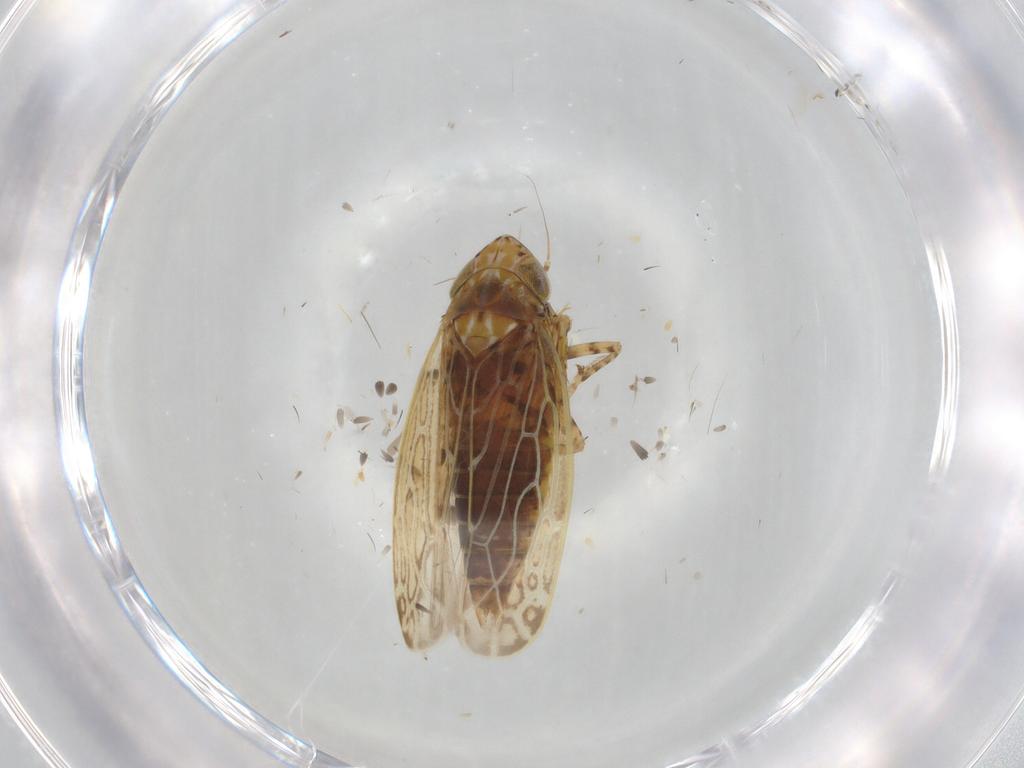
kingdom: Animalia
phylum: Arthropoda
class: Insecta
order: Hemiptera
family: Cicadellidae
